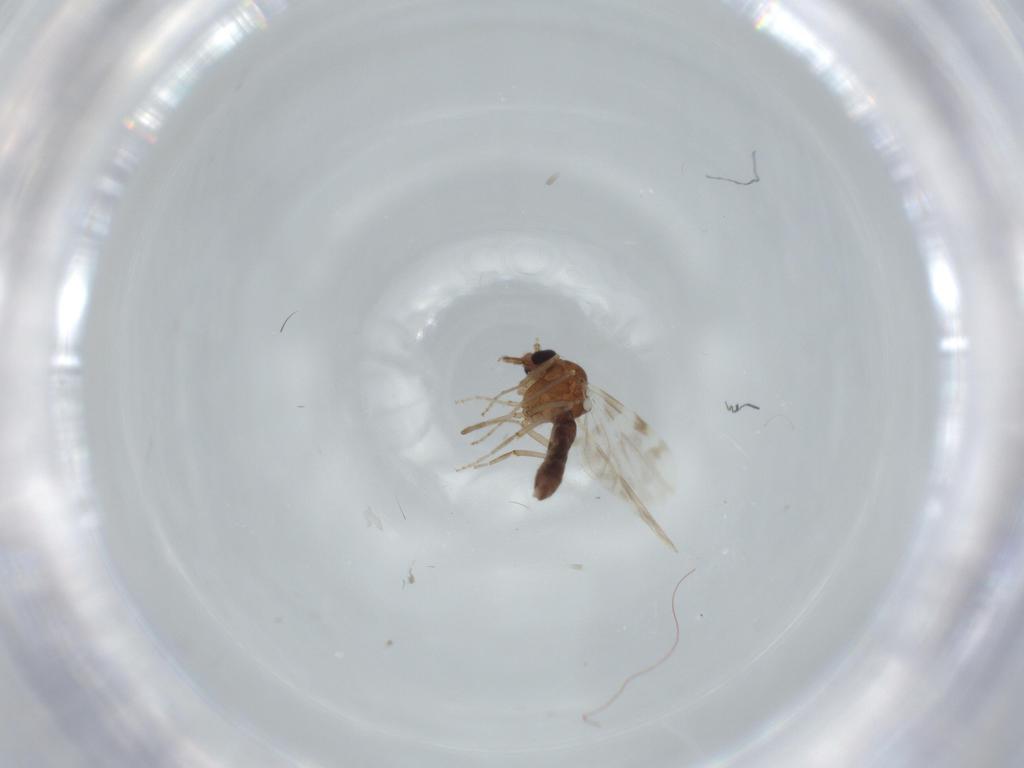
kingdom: Animalia
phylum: Arthropoda
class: Insecta
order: Diptera
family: Ceratopogonidae
